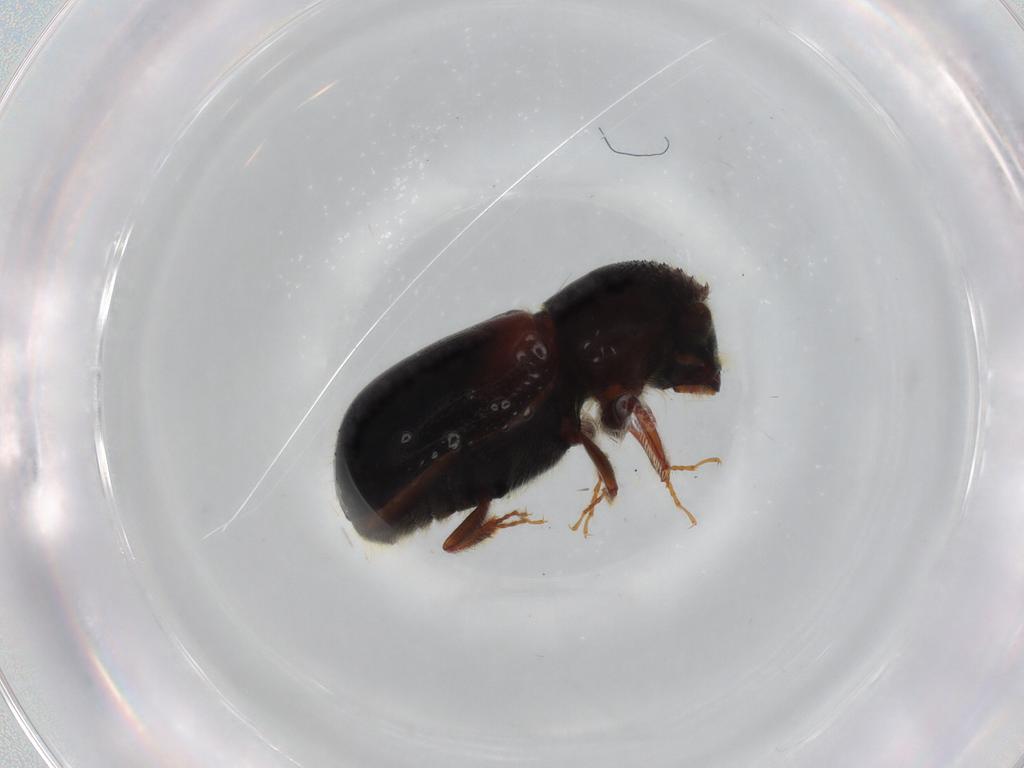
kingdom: Animalia
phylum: Arthropoda
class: Insecta
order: Coleoptera
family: Curculionidae
